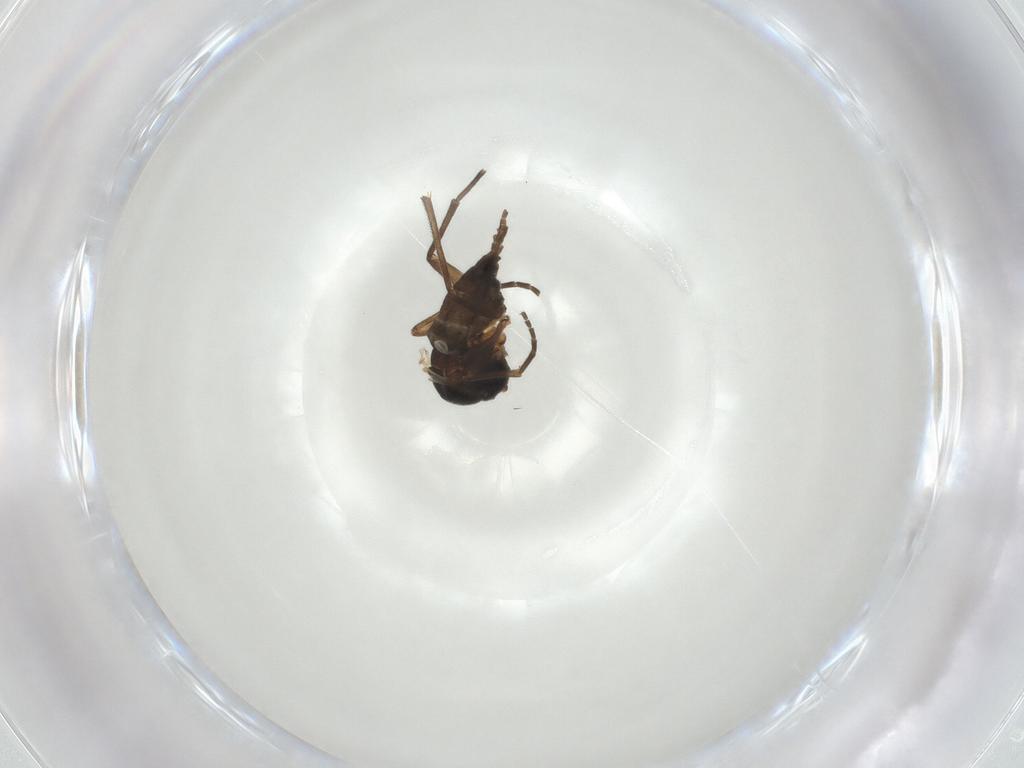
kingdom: Animalia
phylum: Arthropoda
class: Insecta
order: Diptera
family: Sciaridae
